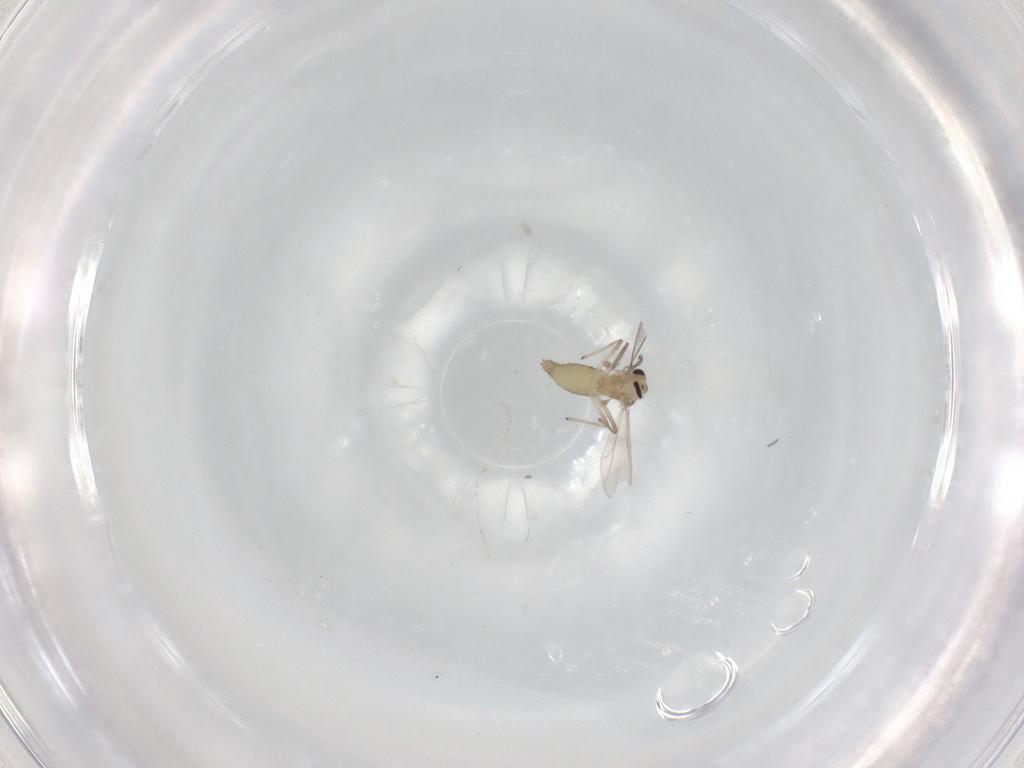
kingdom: Animalia
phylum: Arthropoda
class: Insecta
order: Diptera
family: Chironomidae
